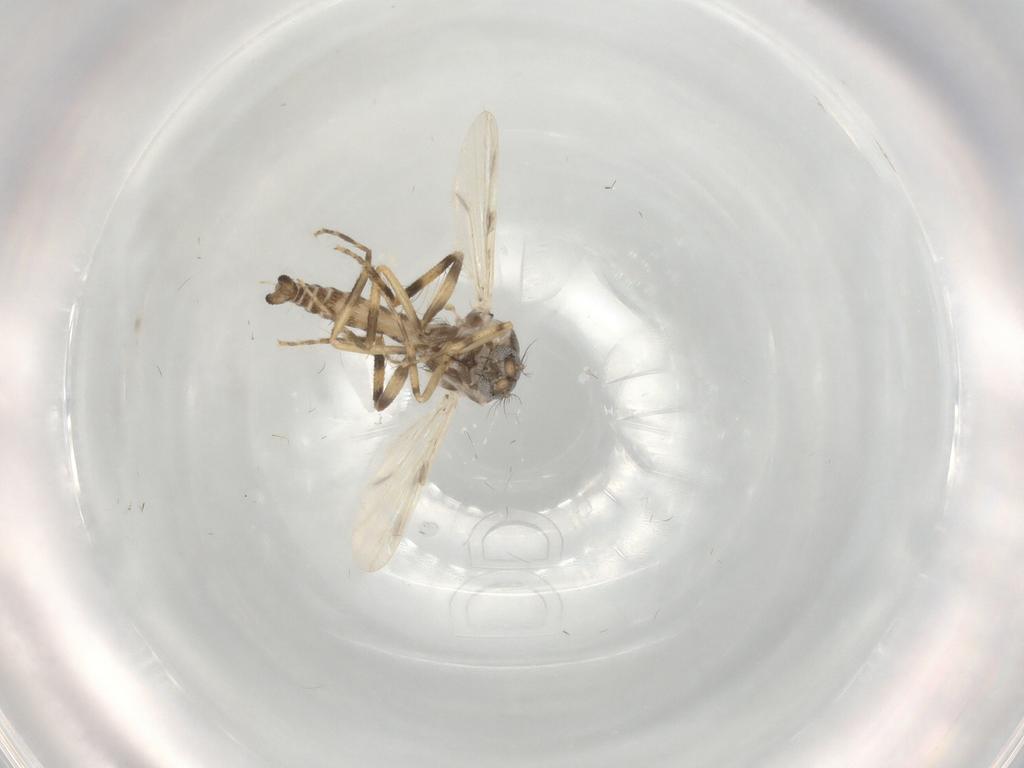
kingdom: Animalia
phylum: Arthropoda
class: Insecta
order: Diptera
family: Ceratopogonidae
